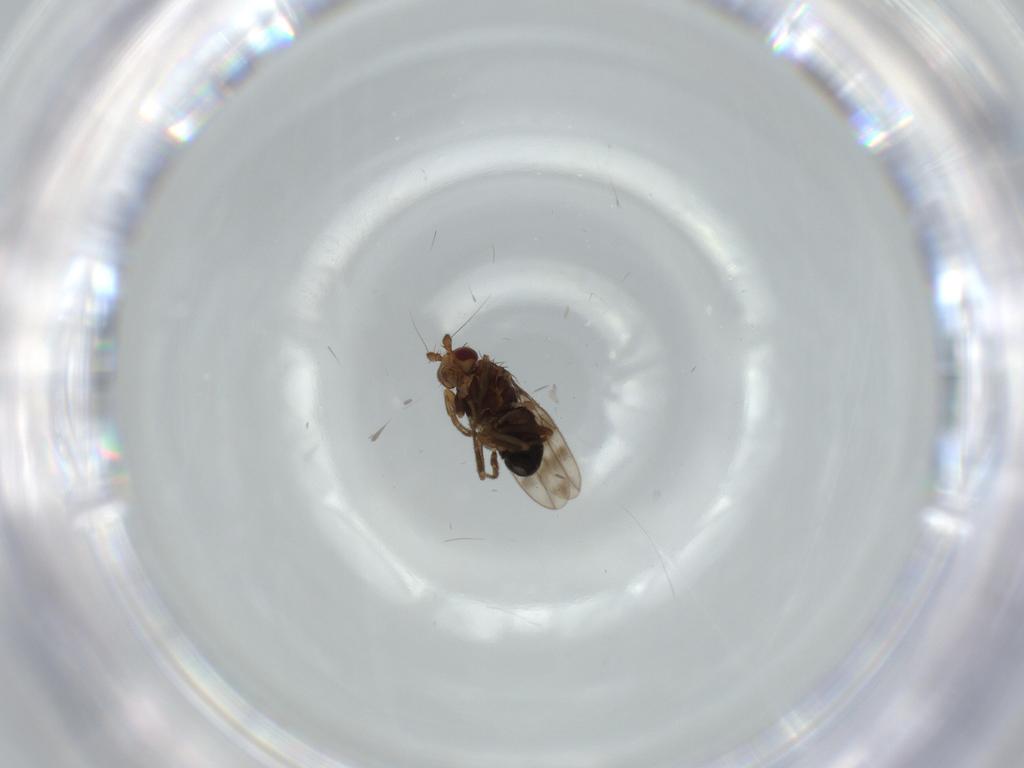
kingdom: Animalia
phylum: Arthropoda
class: Insecta
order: Diptera
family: Sphaeroceridae
